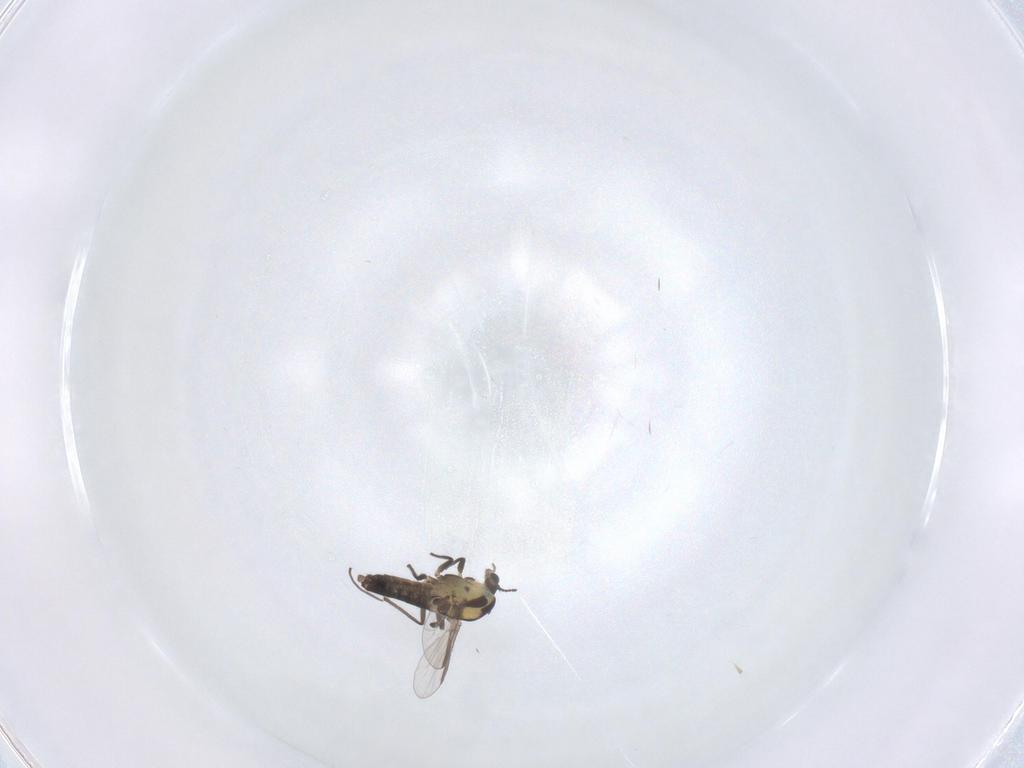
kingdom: Animalia
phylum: Arthropoda
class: Insecta
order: Diptera
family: Chironomidae
